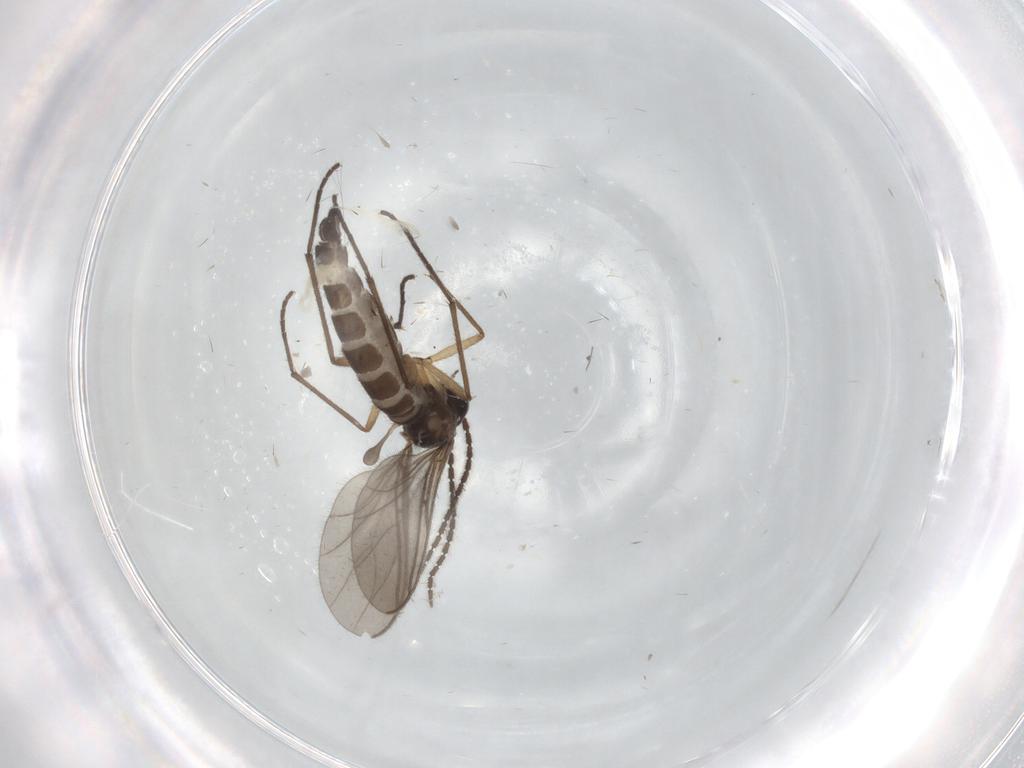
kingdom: Animalia
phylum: Arthropoda
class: Insecta
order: Diptera
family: Sciaridae
